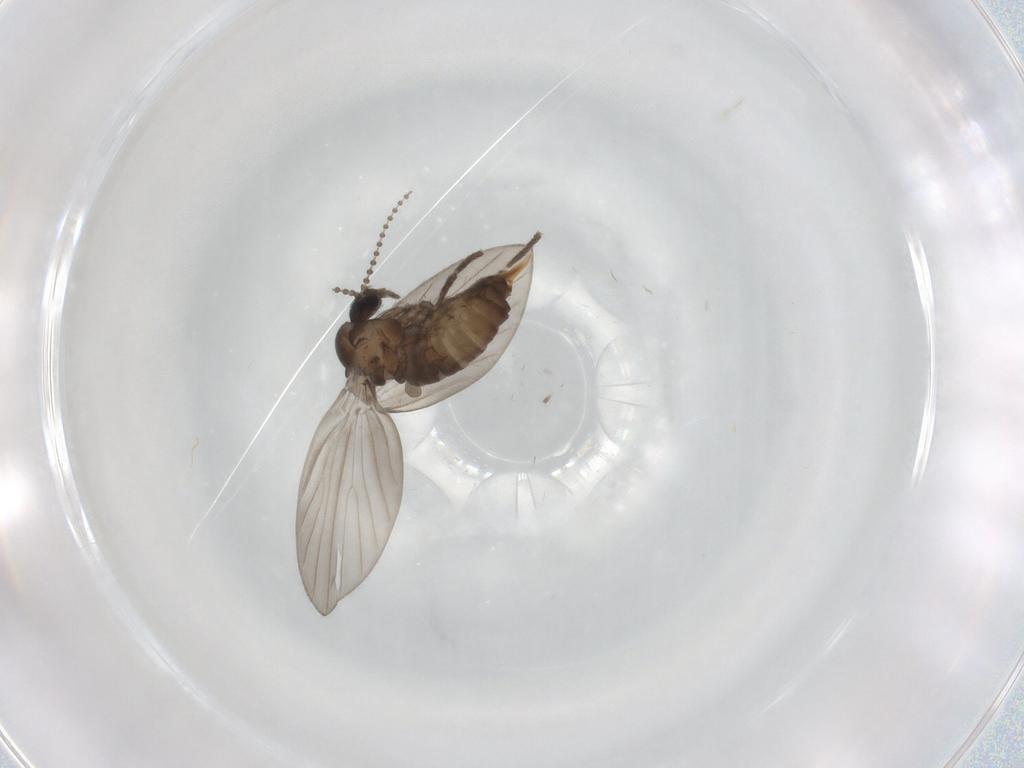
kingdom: Animalia
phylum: Arthropoda
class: Insecta
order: Diptera
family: Psychodidae
